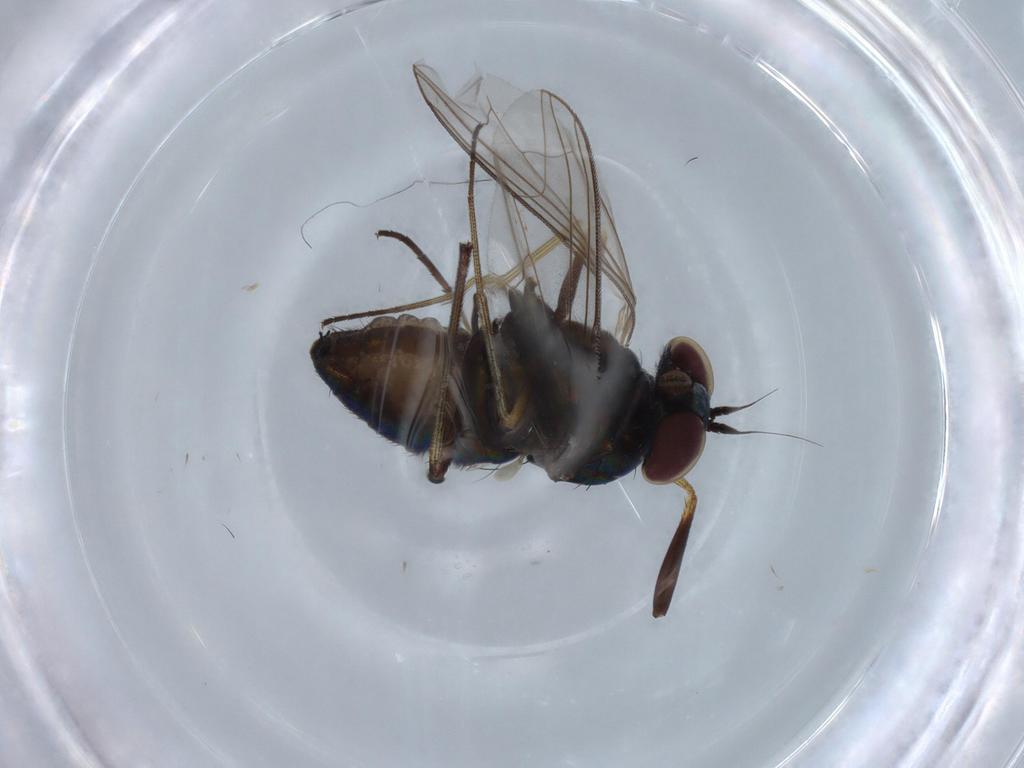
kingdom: Animalia
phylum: Arthropoda
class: Insecta
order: Diptera
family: Dolichopodidae
